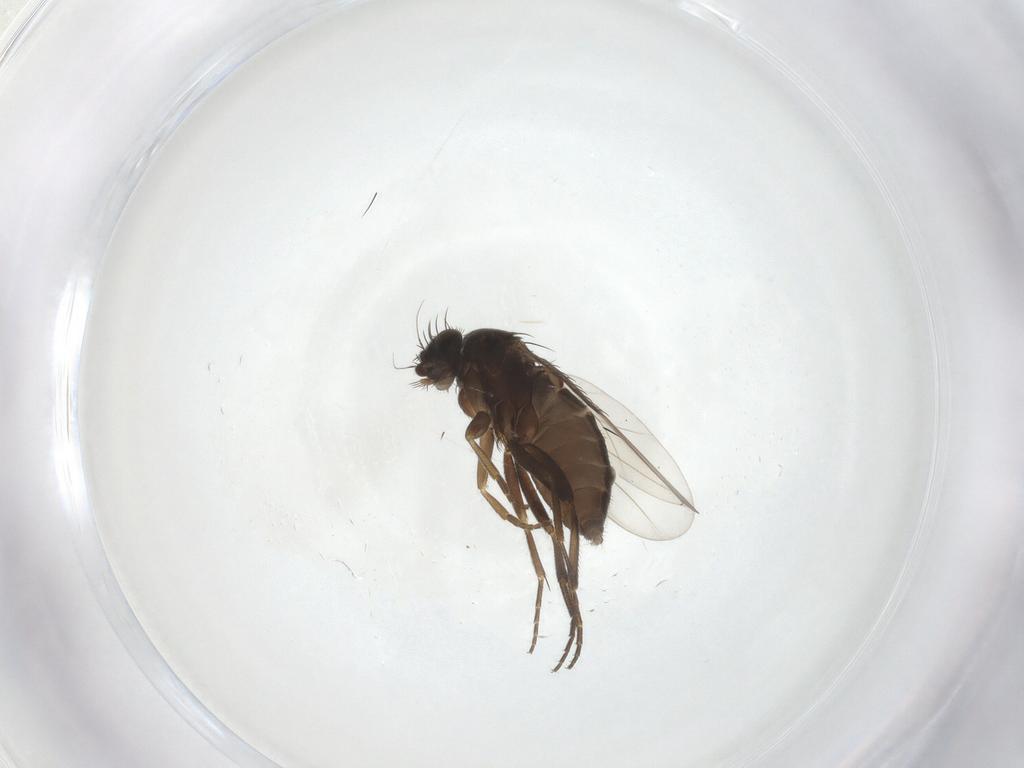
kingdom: Animalia
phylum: Arthropoda
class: Insecta
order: Diptera
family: Phoridae
